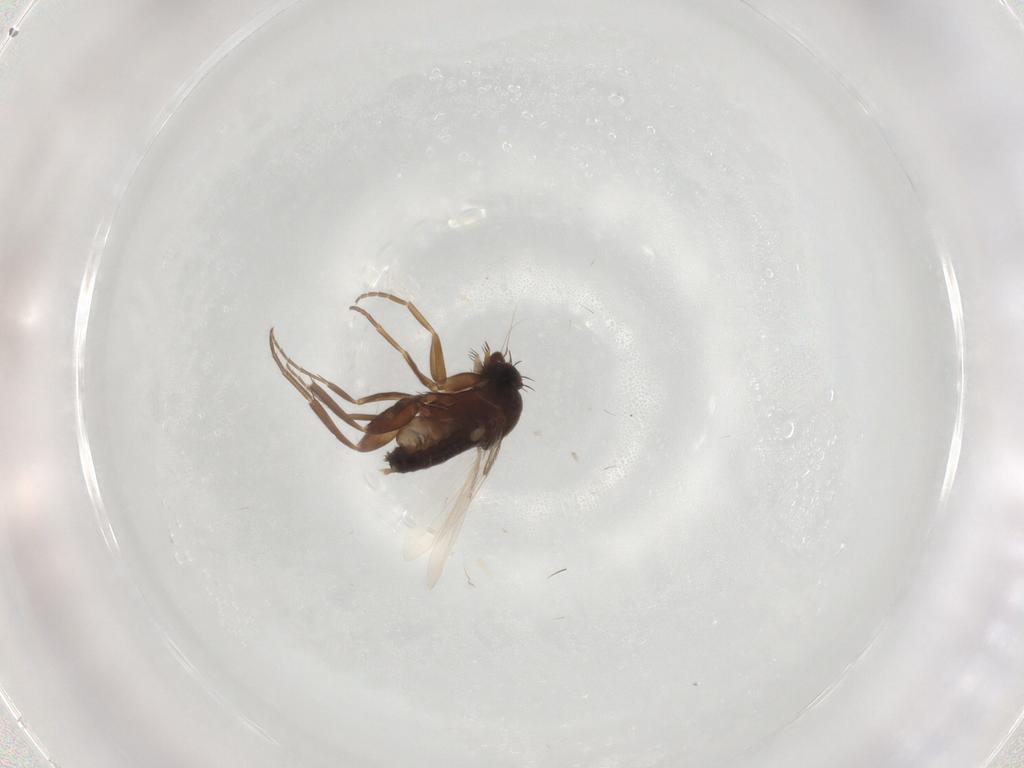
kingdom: Animalia
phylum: Arthropoda
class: Insecta
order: Diptera
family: Phoridae
